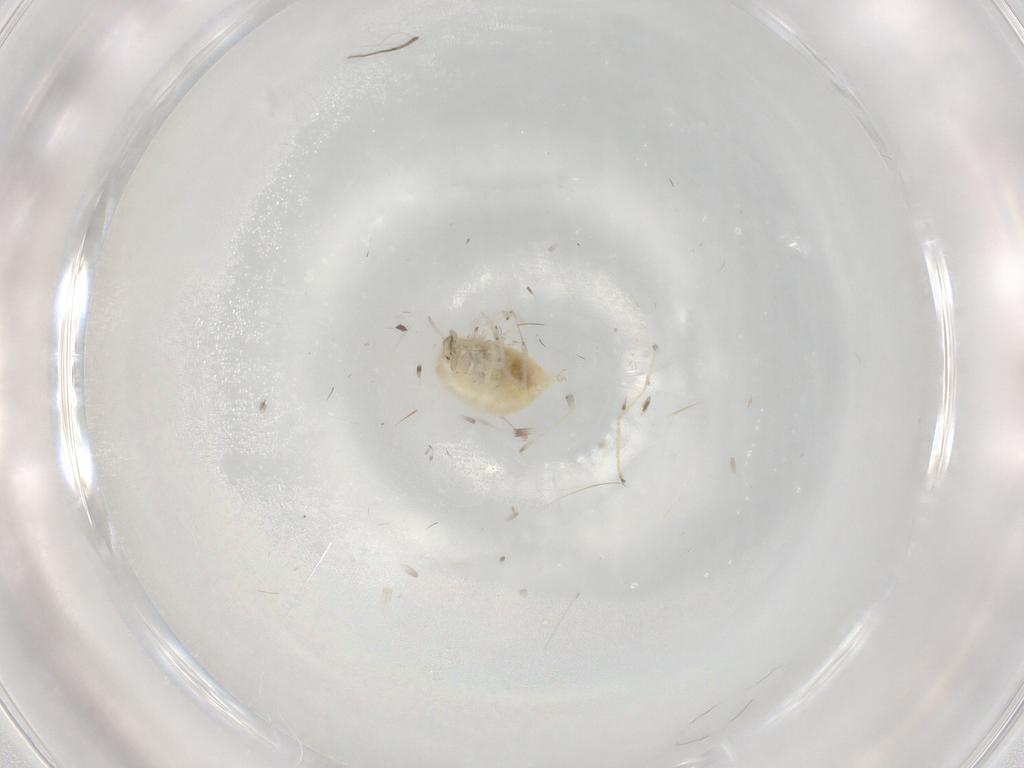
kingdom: Animalia
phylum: Arthropoda
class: Insecta
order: Neuroptera
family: Coniopterygidae
